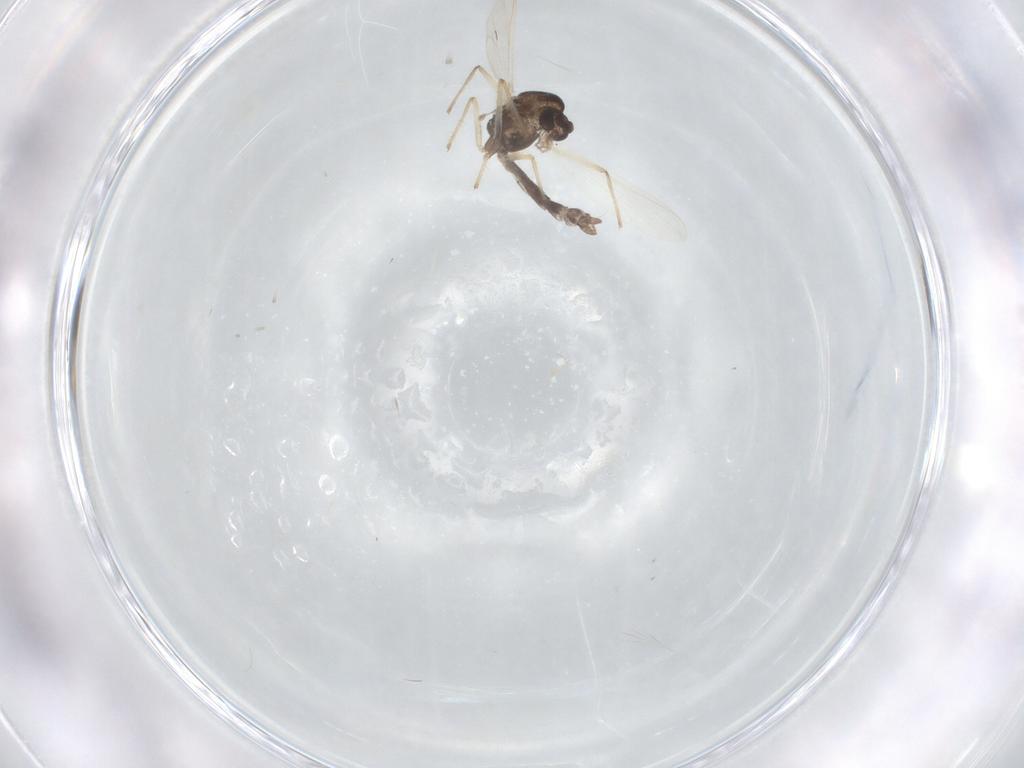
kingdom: Animalia
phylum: Arthropoda
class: Insecta
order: Diptera
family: Chironomidae
